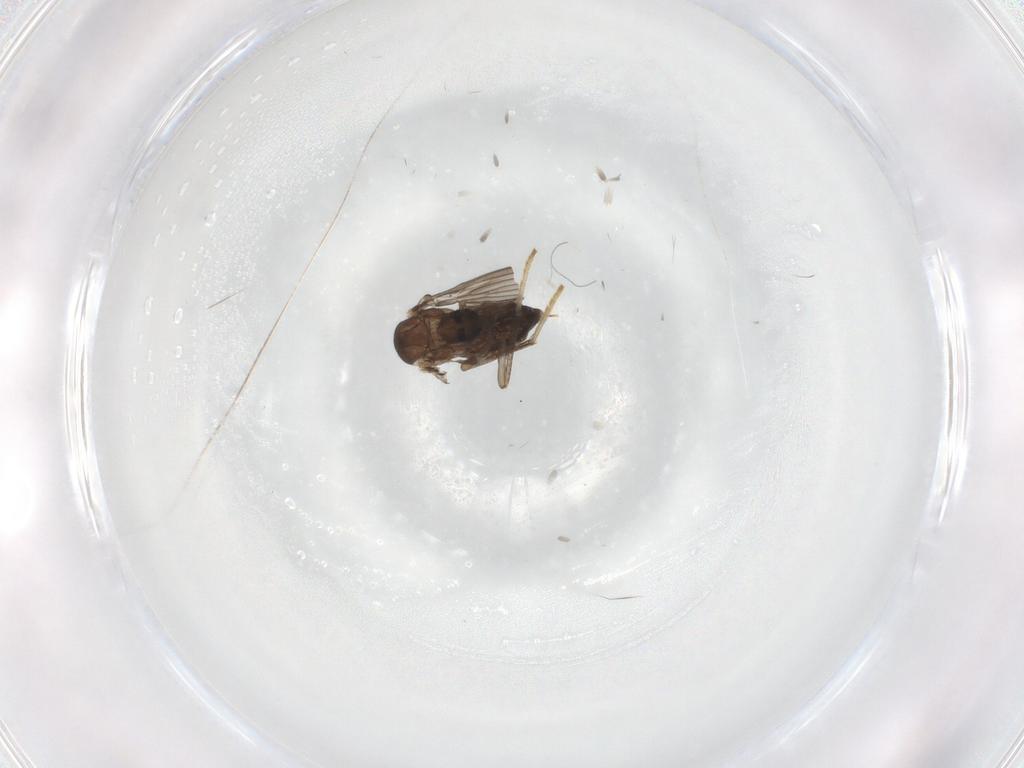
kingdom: Animalia
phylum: Arthropoda
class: Insecta
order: Diptera
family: Psychodidae
